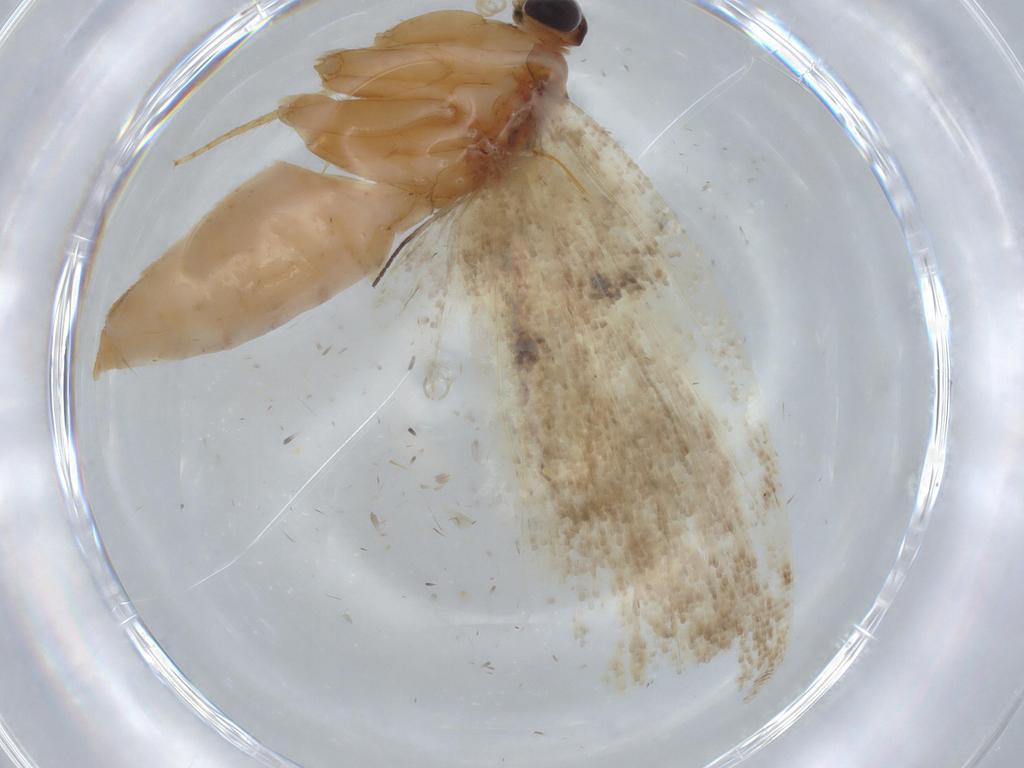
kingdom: Animalia
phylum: Arthropoda
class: Insecta
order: Lepidoptera
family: Tortricidae
